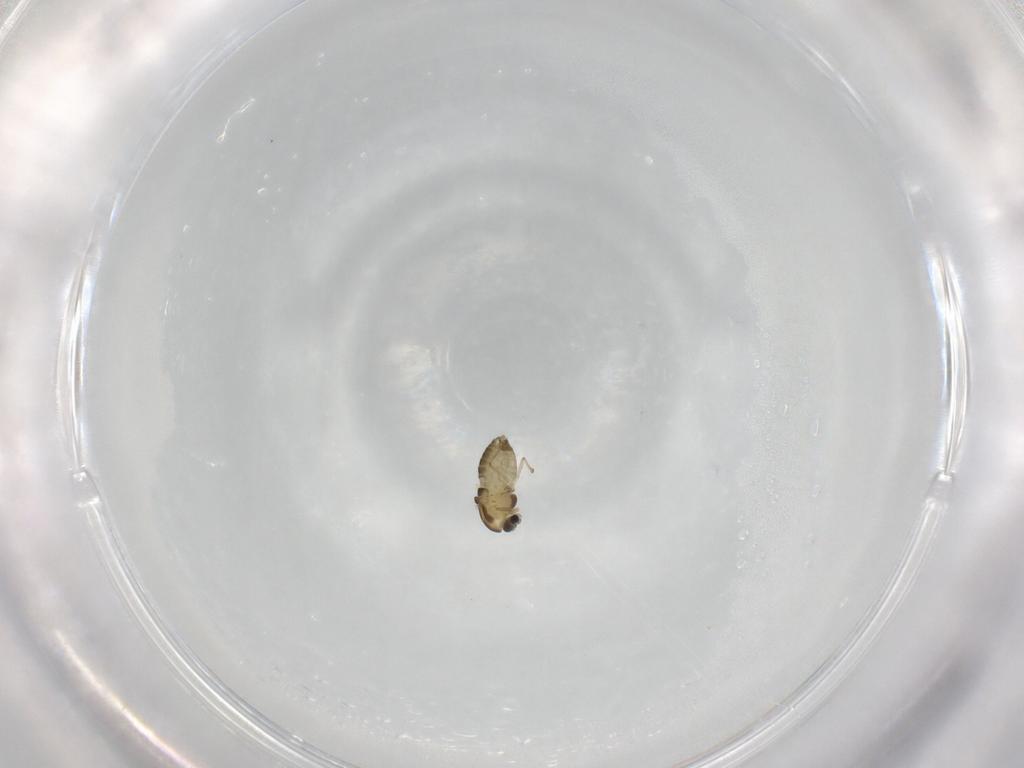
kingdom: Animalia
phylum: Arthropoda
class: Insecta
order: Diptera
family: Chironomidae
